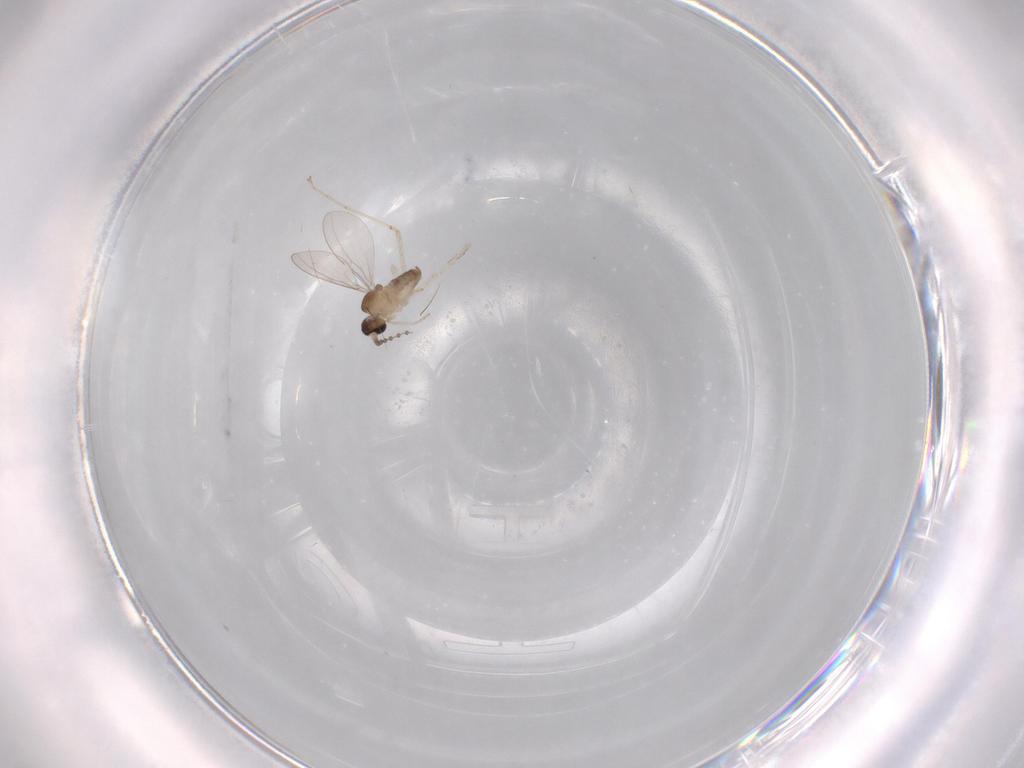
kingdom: Animalia
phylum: Arthropoda
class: Insecta
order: Diptera
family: Cecidomyiidae
